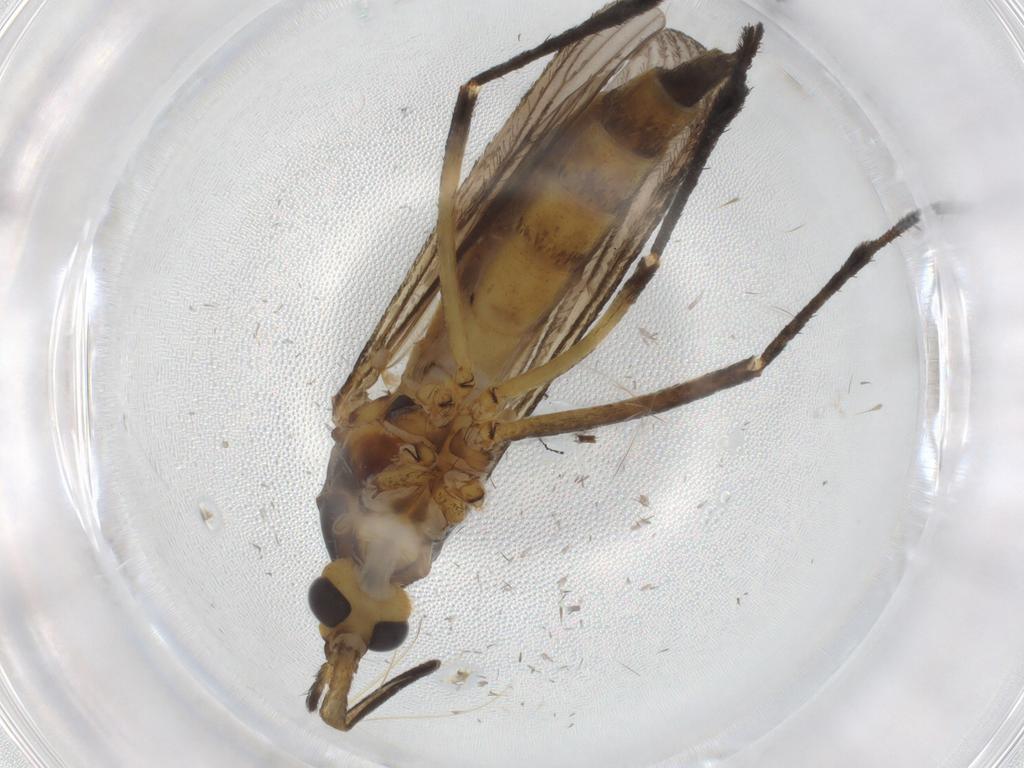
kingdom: Animalia
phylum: Arthropoda
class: Insecta
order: Diptera
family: Culicidae
